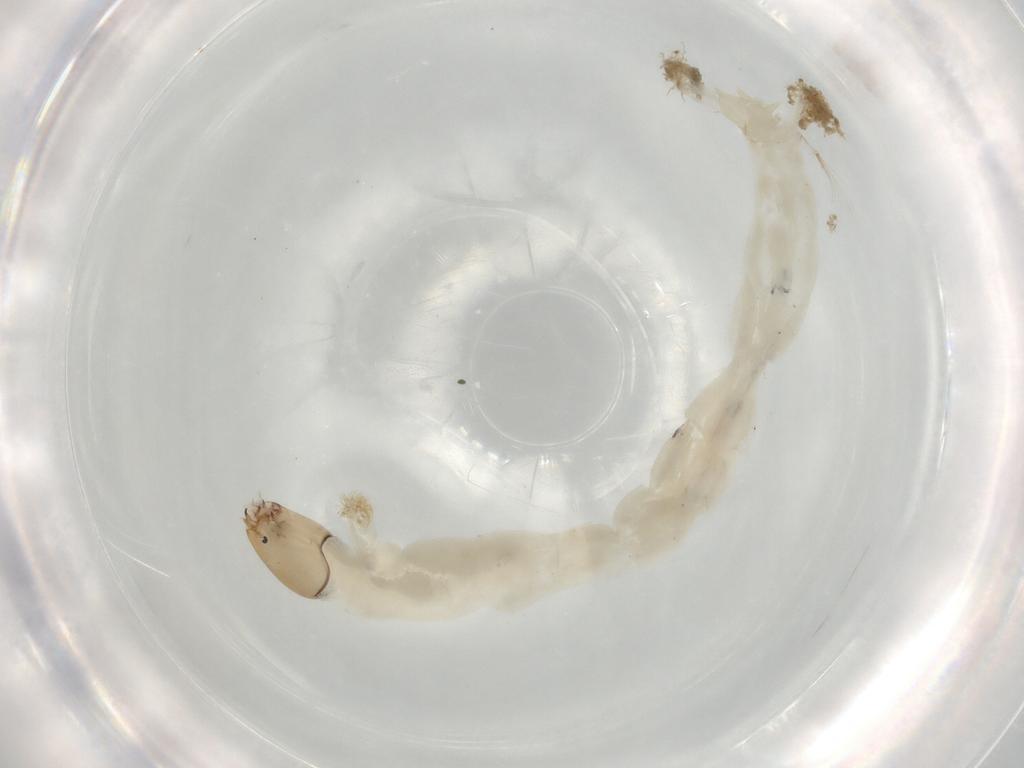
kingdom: Animalia
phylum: Arthropoda
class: Insecta
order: Diptera
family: Chironomidae
